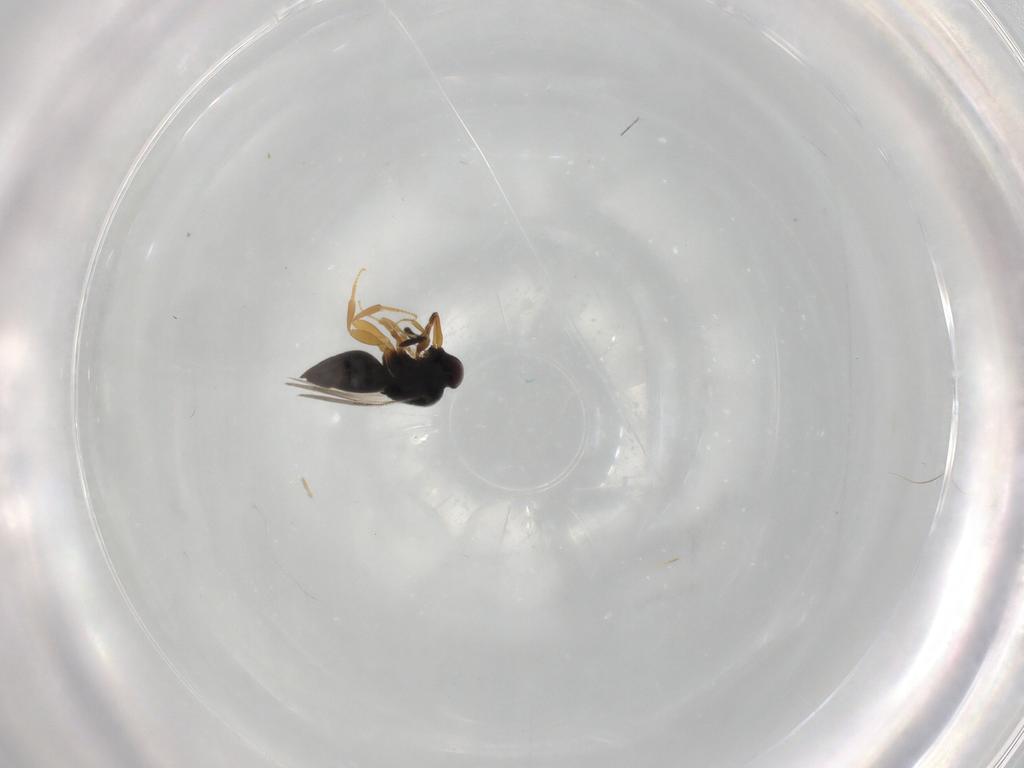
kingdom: Animalia
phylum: Arthropoda
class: Insecta
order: Hymenoptera
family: Ceraphronidae
